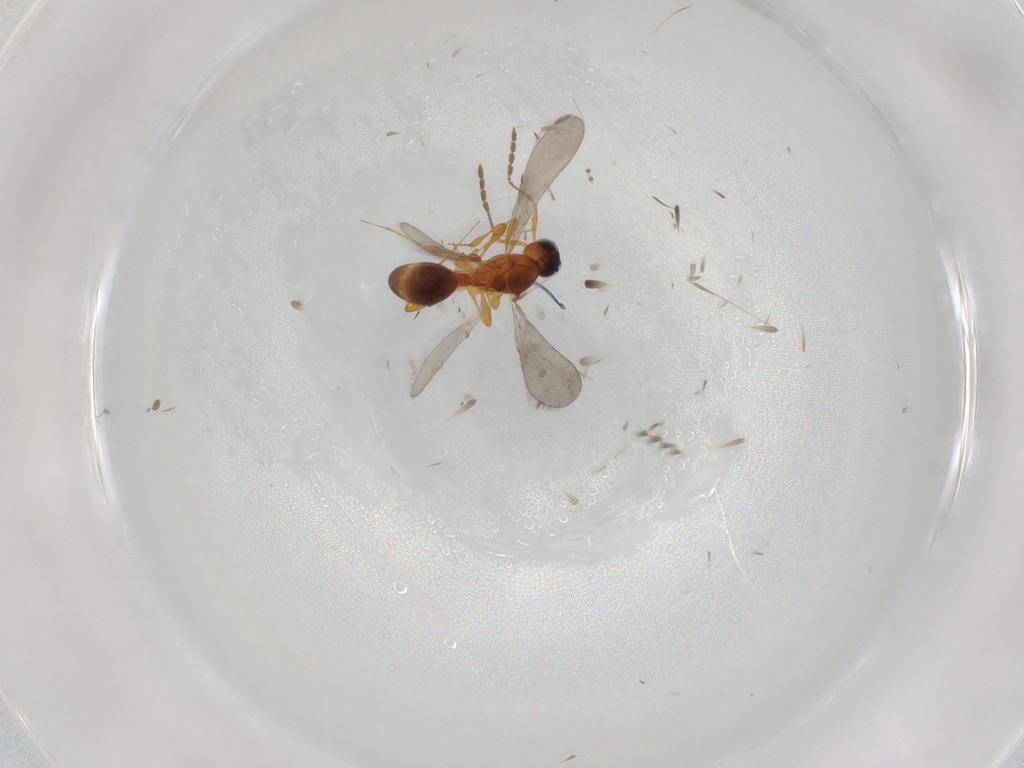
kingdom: Animalia
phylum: Arthropoda
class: Insecta
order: Hymenoptera
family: Platygastridae
